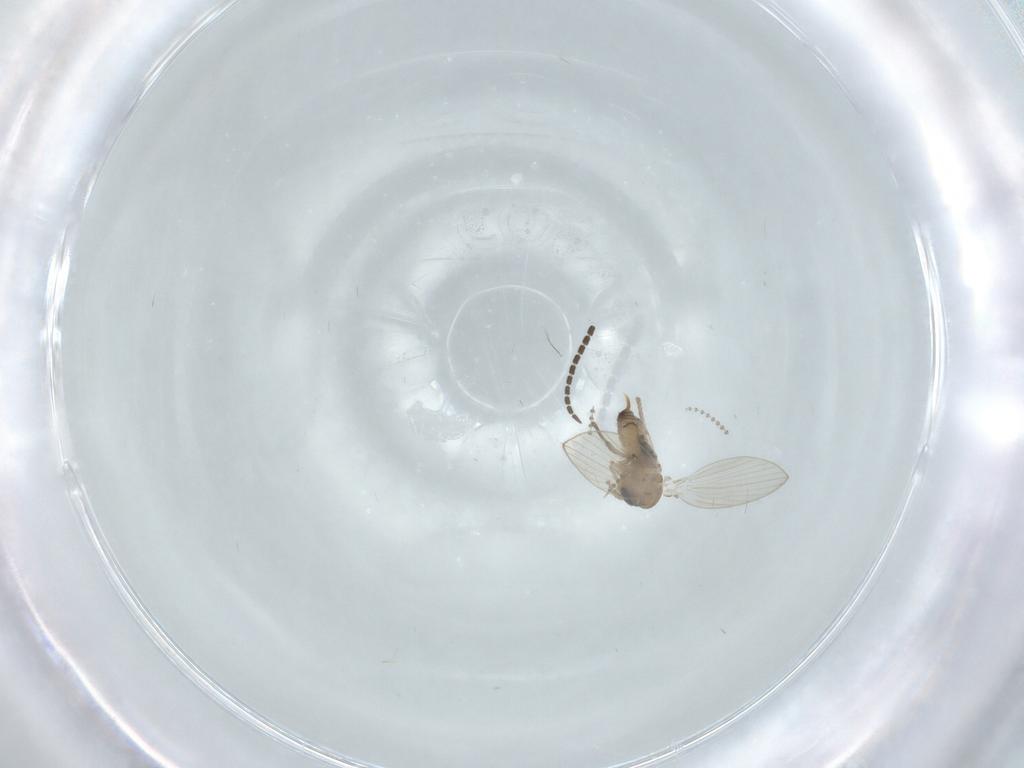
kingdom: Animalia
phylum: Arthropoda
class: Insecta
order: Diptera
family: Psychodidae
